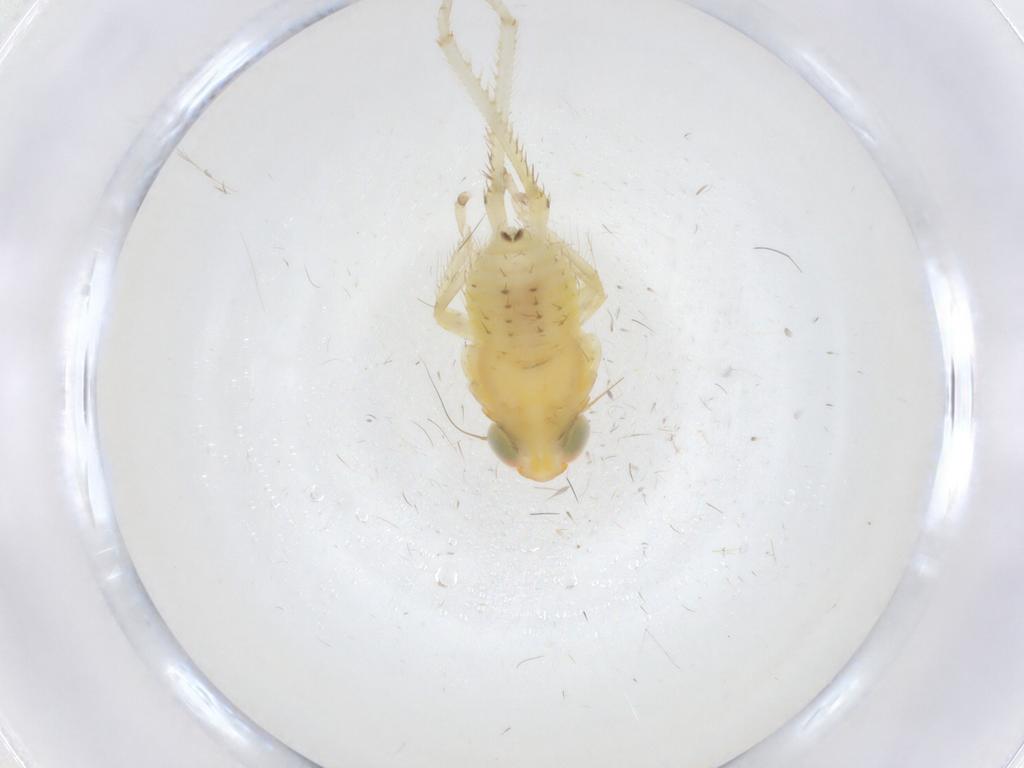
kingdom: Animalia
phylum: Arthropoda
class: Insecta
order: Hemiptera
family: Cicadellidae
